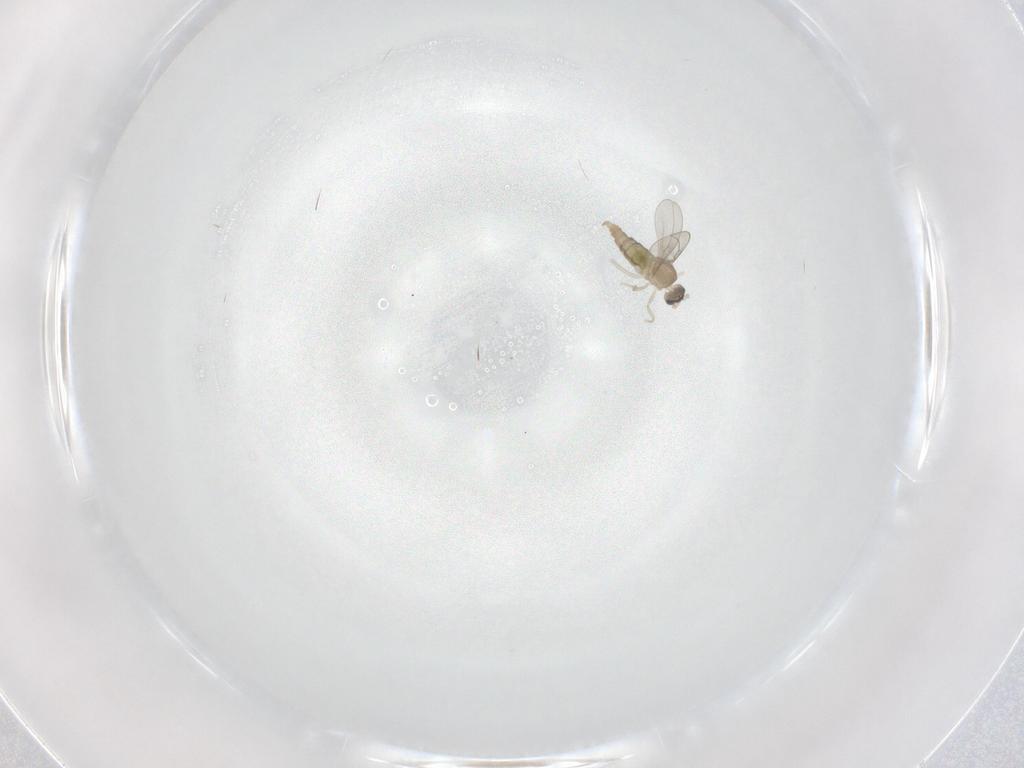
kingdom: Animalia
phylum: Arthropoda
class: Insecta
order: Diptera
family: Cecidomyiidae
